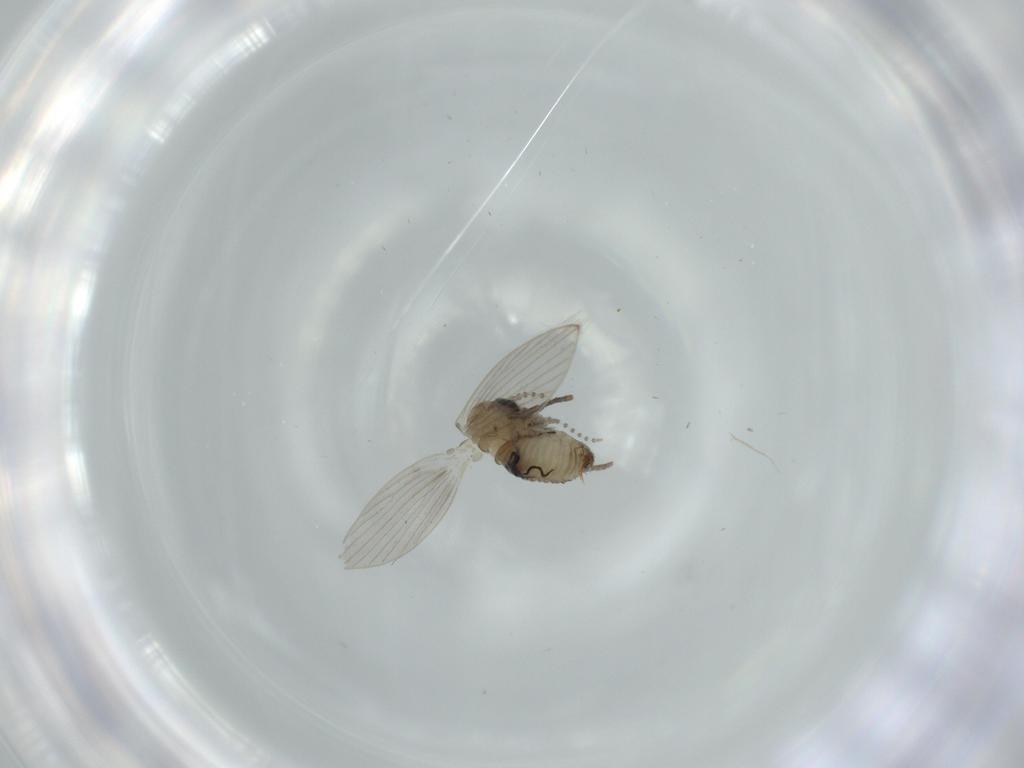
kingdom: Animalia
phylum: Arthropoda
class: Insecta
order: Diptera
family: Psychodidae
